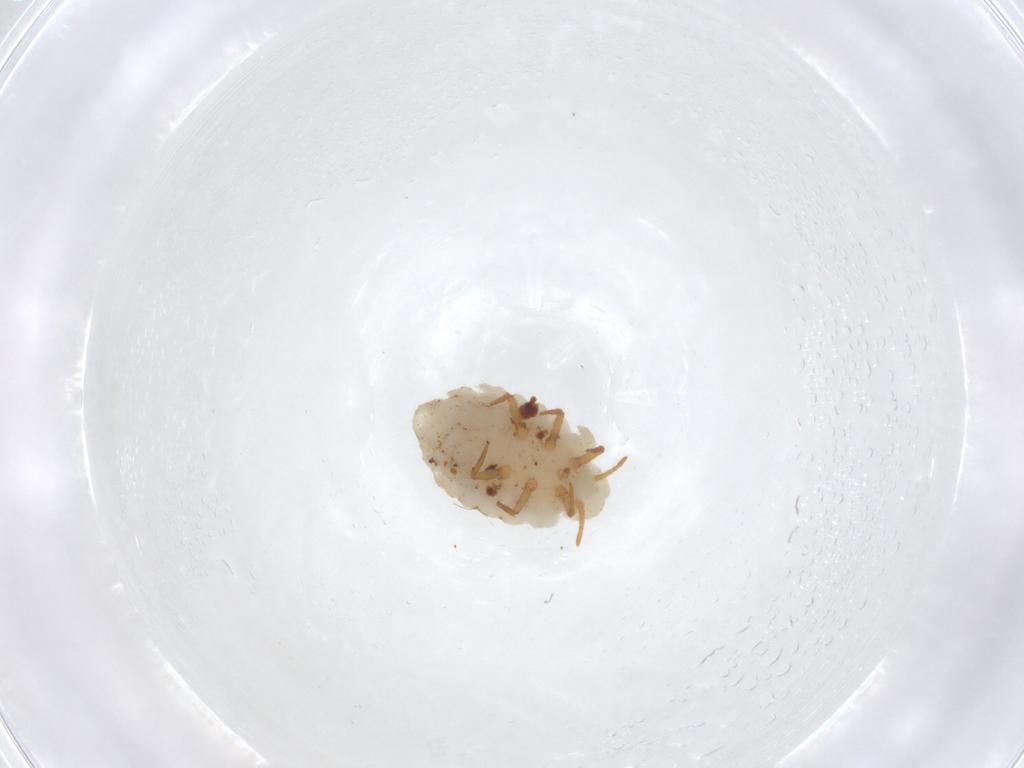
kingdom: Animalia
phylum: Arthropoda
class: Insecta
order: Hemiptera
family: Ortheziidae
